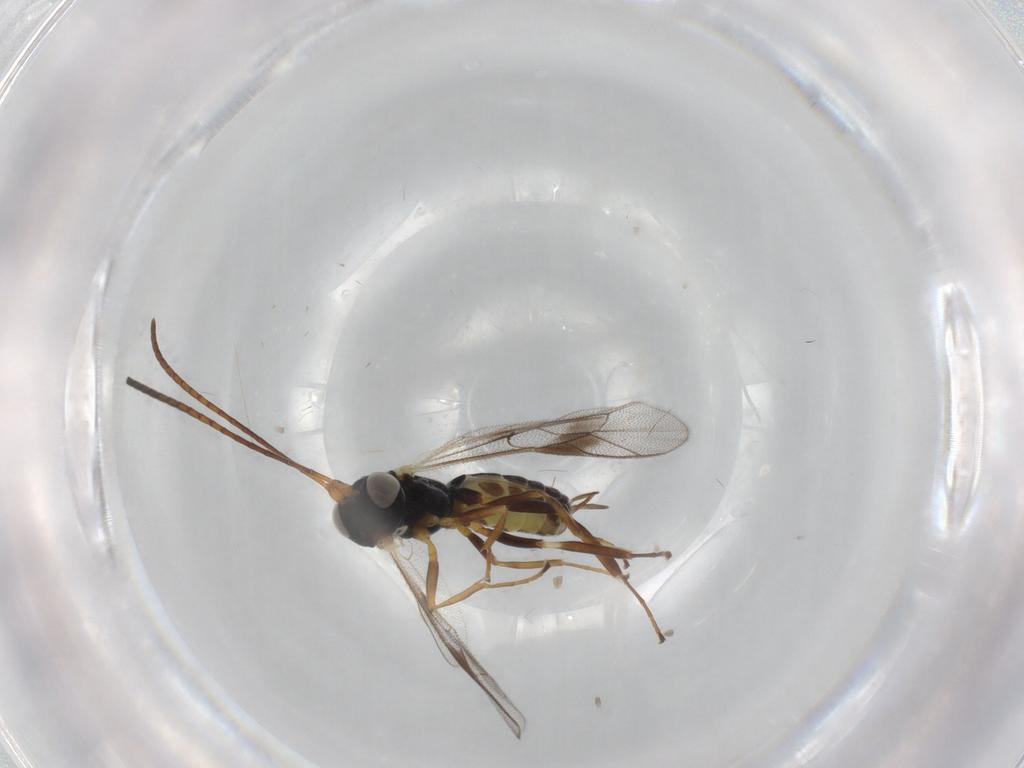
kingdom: Animalia
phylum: Arthropoda
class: Insecta
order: Hymenoptera
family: Ichneumonidae
